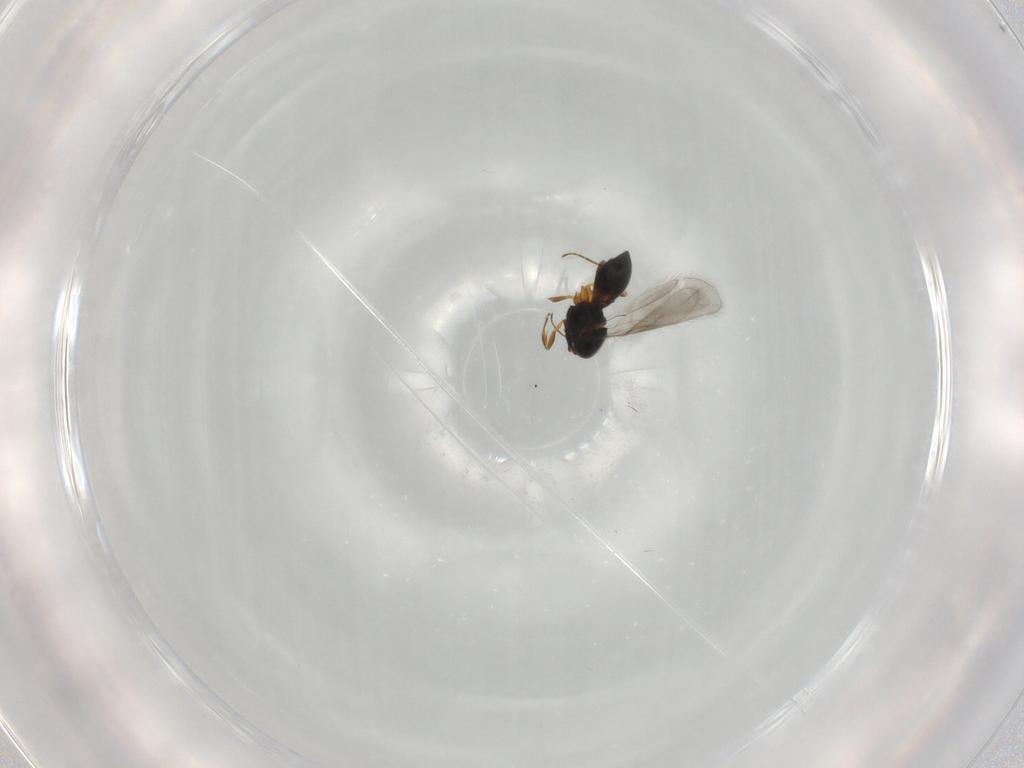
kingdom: Animalia
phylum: Arthropoda
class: Insecta
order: Hymenoptera
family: Scelionidae
